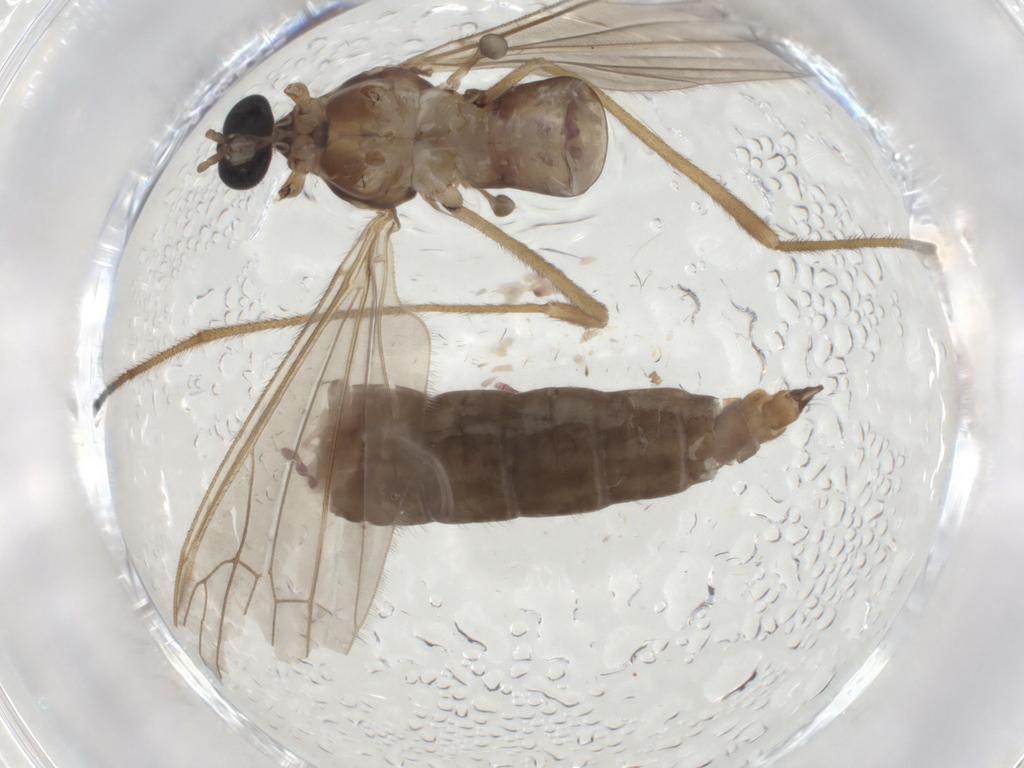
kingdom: Animalia
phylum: Arthropoda
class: Insecta
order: Diptera
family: Limoniidae
